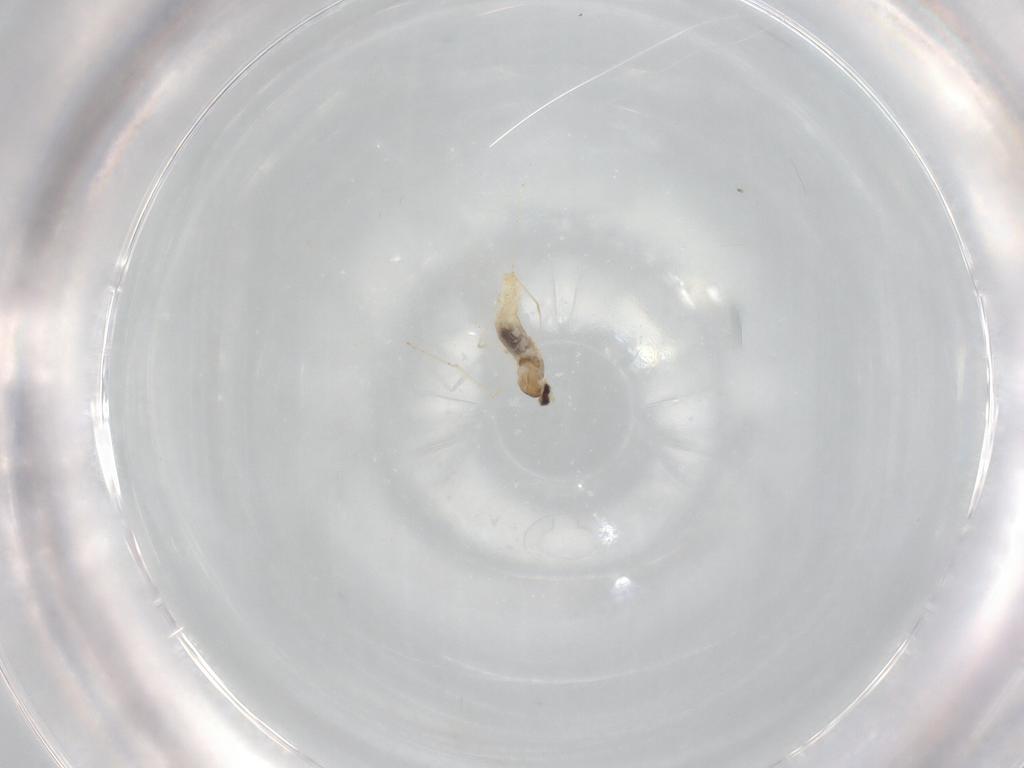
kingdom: Animalia
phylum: Arthropoda
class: Insecta
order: Diptera
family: Cecidomyiidae
